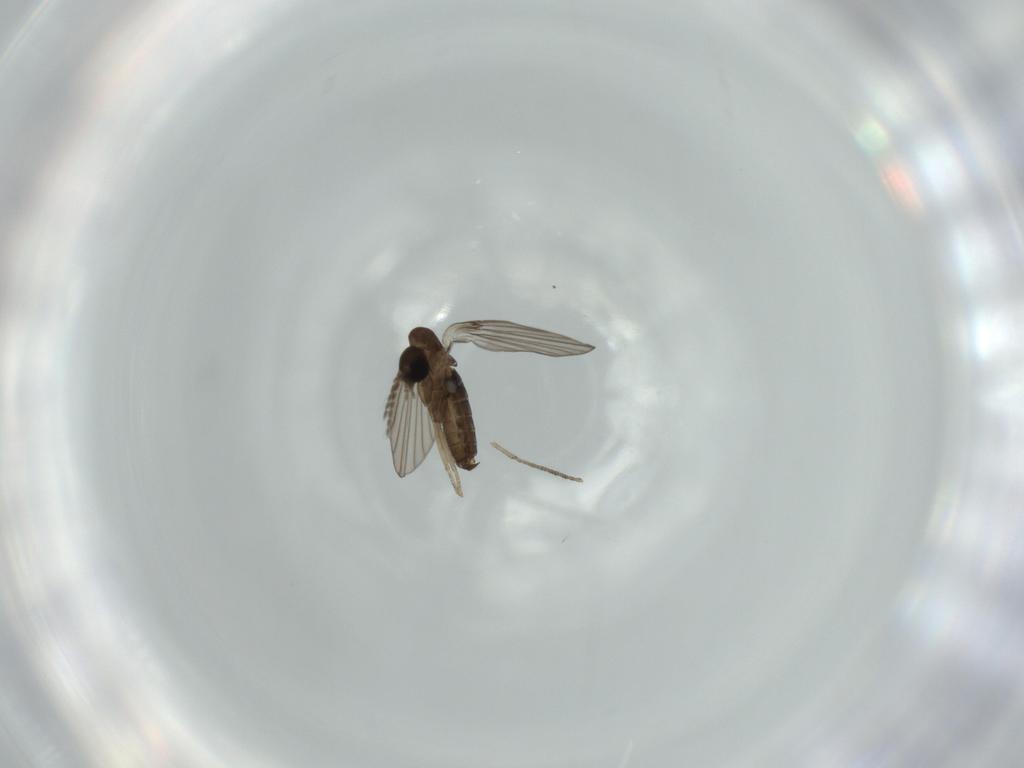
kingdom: Animalia
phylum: Arthropoda
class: Insecta
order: Diptera
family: Psychodidae
